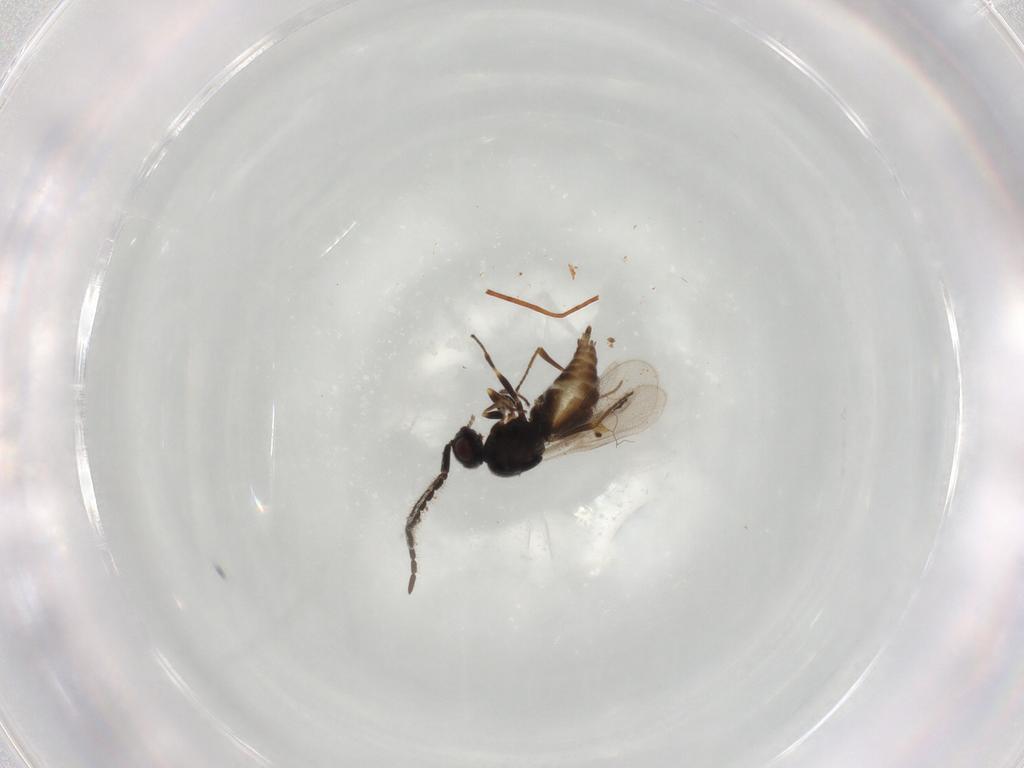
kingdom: Animalia
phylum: Arthropoda
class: Insecta
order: Hymenoptera
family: Megaspilidae
